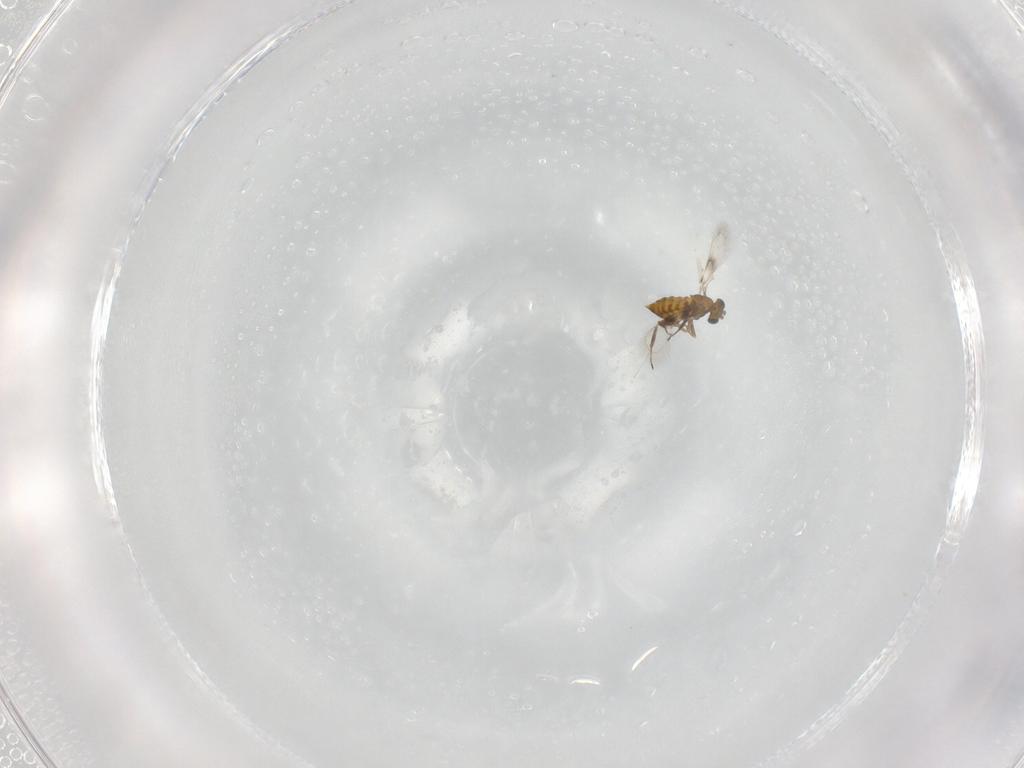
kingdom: Animalia
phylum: Arthropoda
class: Insecta
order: Hymenoptera
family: Trichogrammatidae
